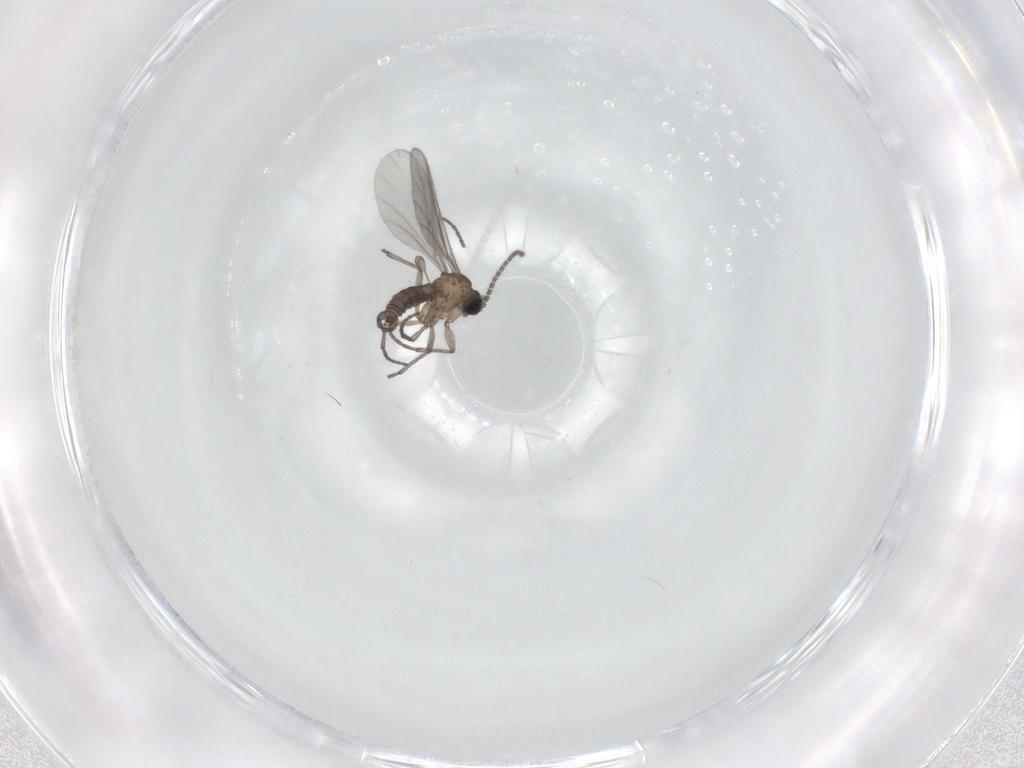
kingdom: Animalia
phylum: Arthropoda
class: Insecta
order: Diptera
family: Sciaridae
